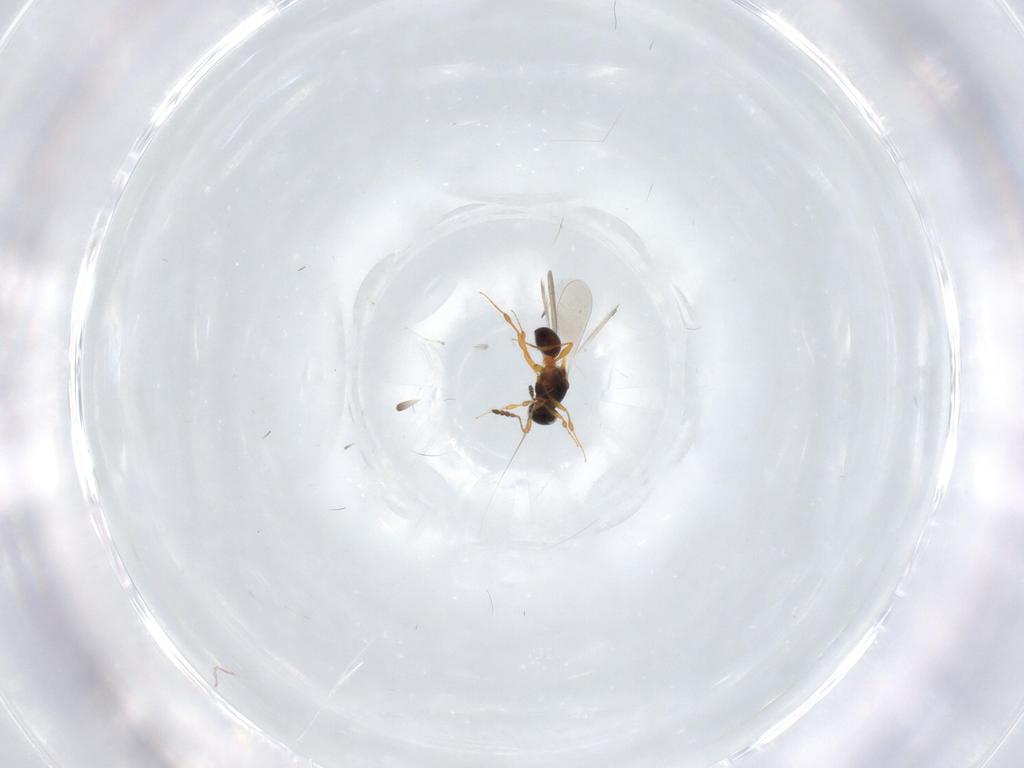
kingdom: Animalia
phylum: Arthropoda
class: Insecta
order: Hymenoptera
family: Platygastridae
